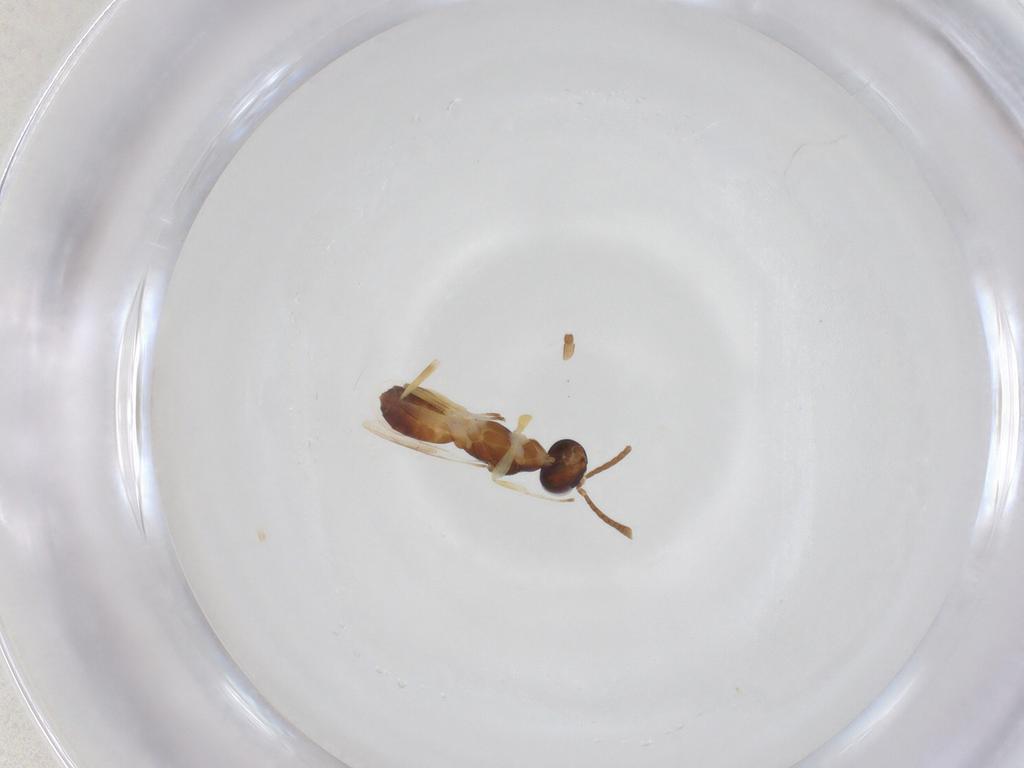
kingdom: Animalia
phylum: Arthropoda
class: Insecta
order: Hymenoptera
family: Eupelmidae
